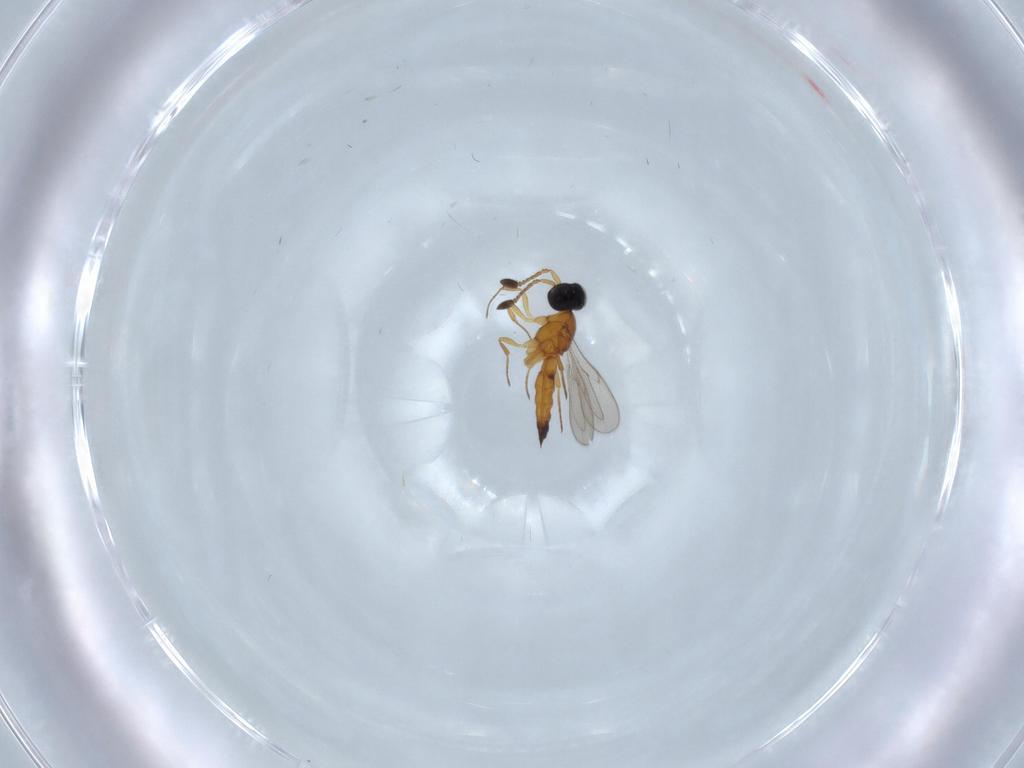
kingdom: Animalia
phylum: Arthropoda
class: Insecta
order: Hymenoptera
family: Scelionidae
